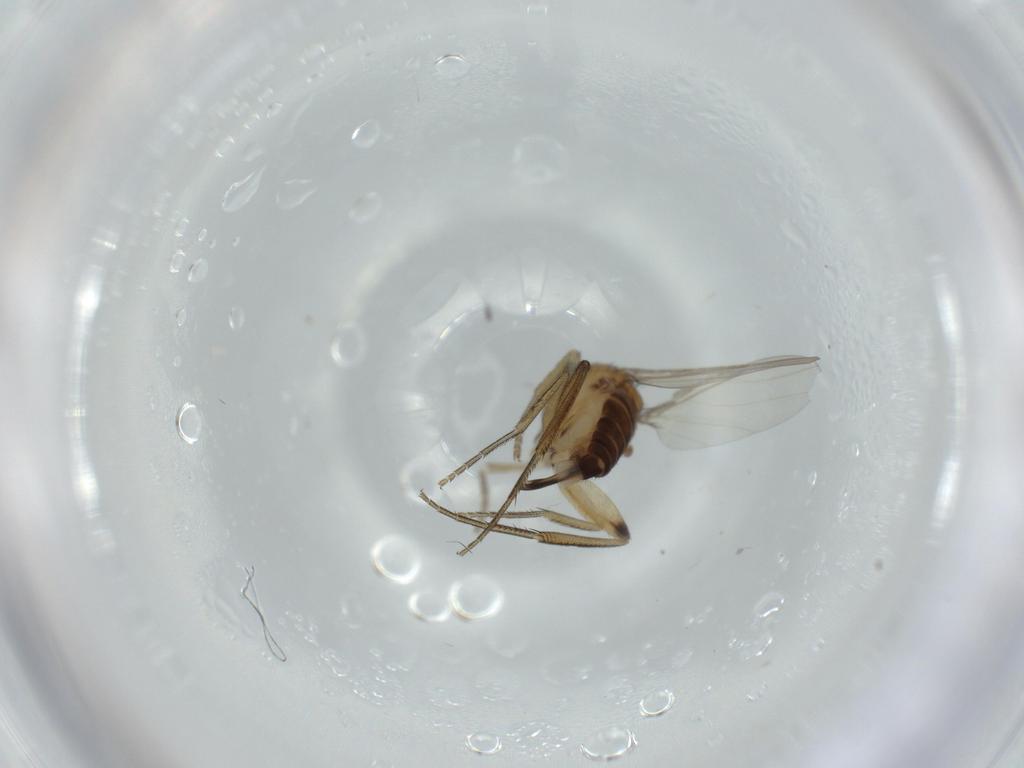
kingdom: Animalia
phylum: Arthropoda
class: Insecta
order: Diptera
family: Phoridae
